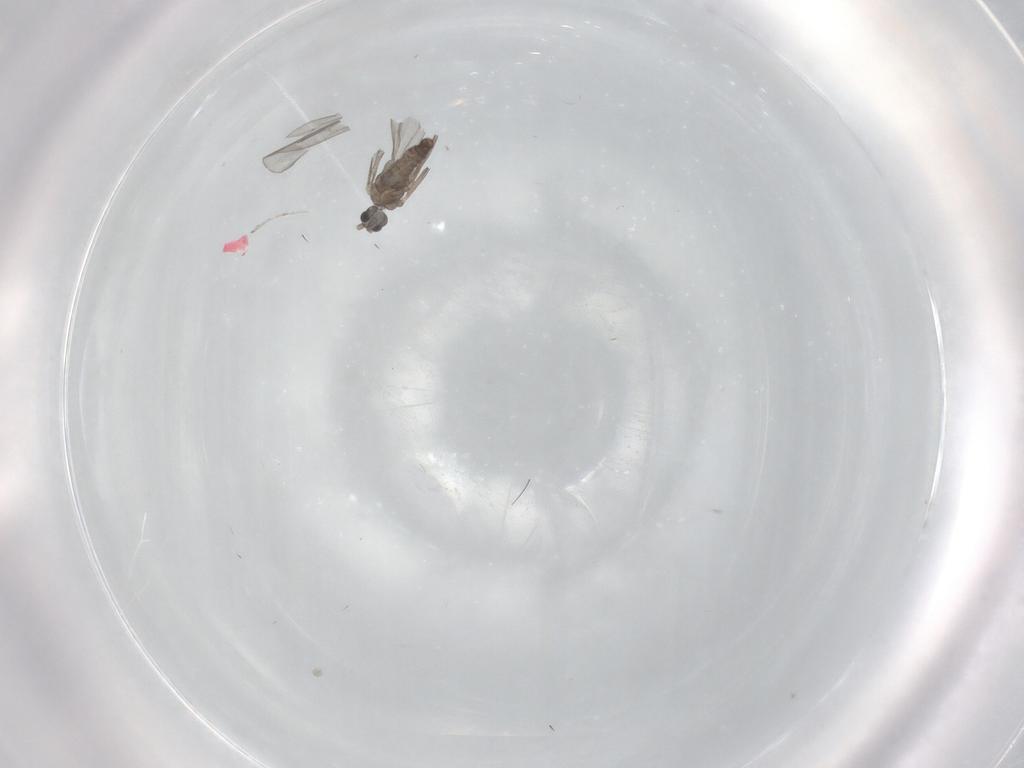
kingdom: Animalia
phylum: Arthropoda
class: Insecta
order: Diptera
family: Cecidomyiidae
